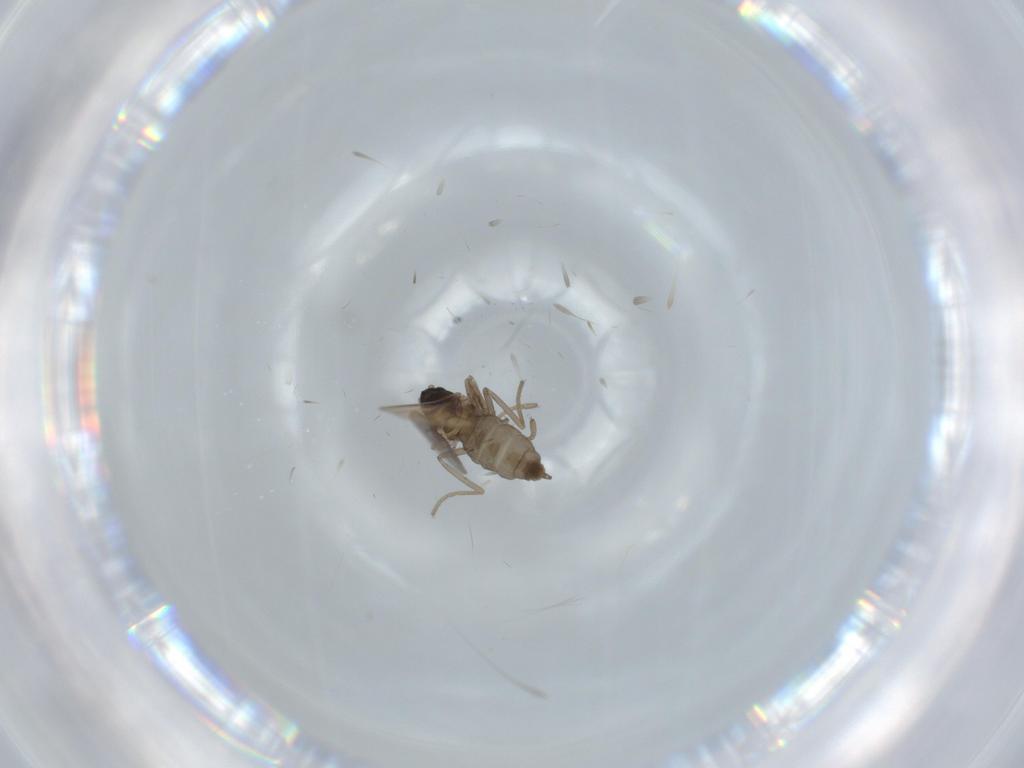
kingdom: Animalia
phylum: Arthropoda
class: Insecta
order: Diptera
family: Cecidomyiidae
